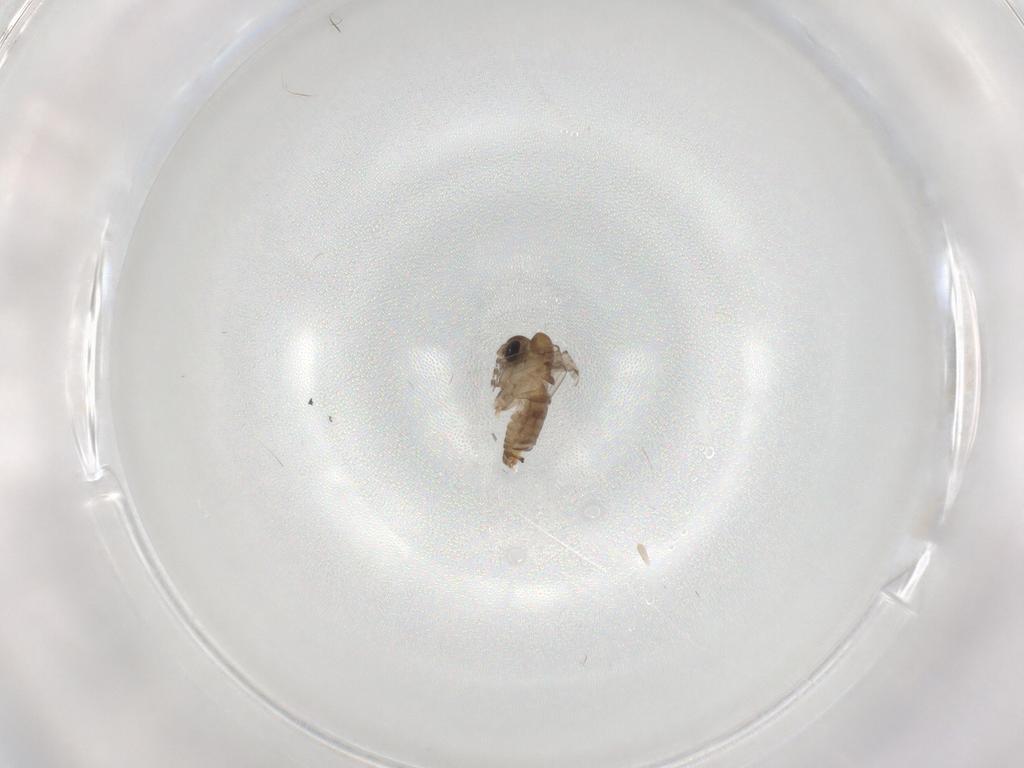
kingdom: Animalia
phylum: Arthropoda
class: Insecta
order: Diptera
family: Psychodidae
